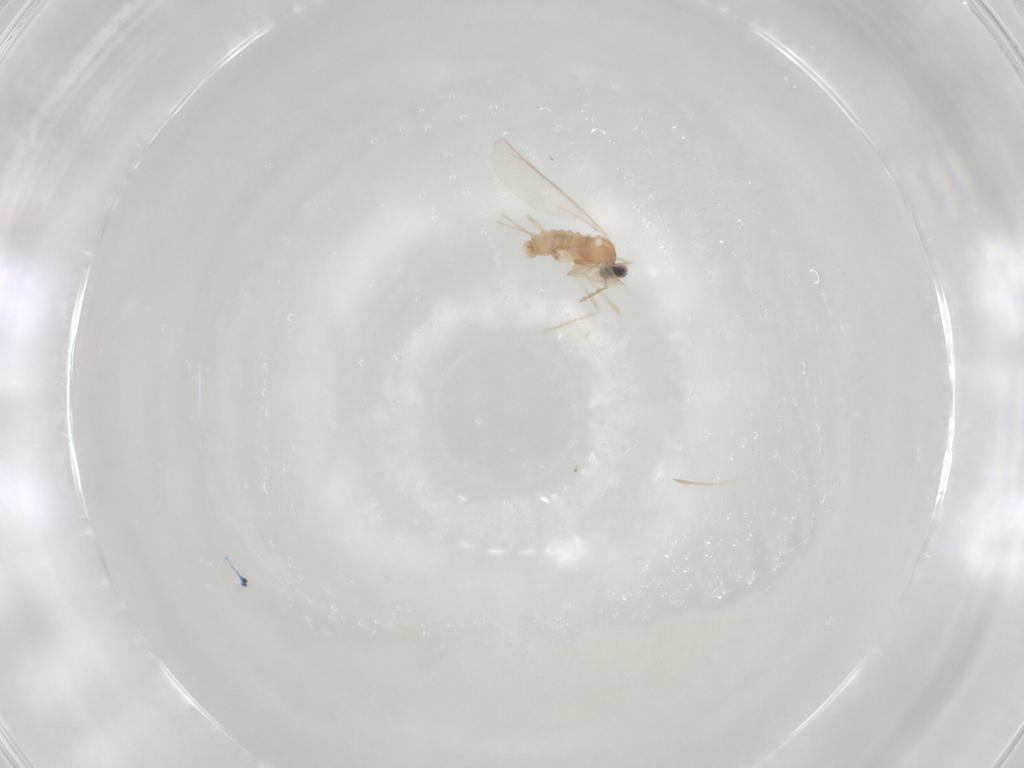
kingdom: Animalia
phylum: Arthropoda
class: Insecta
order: Diptera
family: Cecidomyiidae
